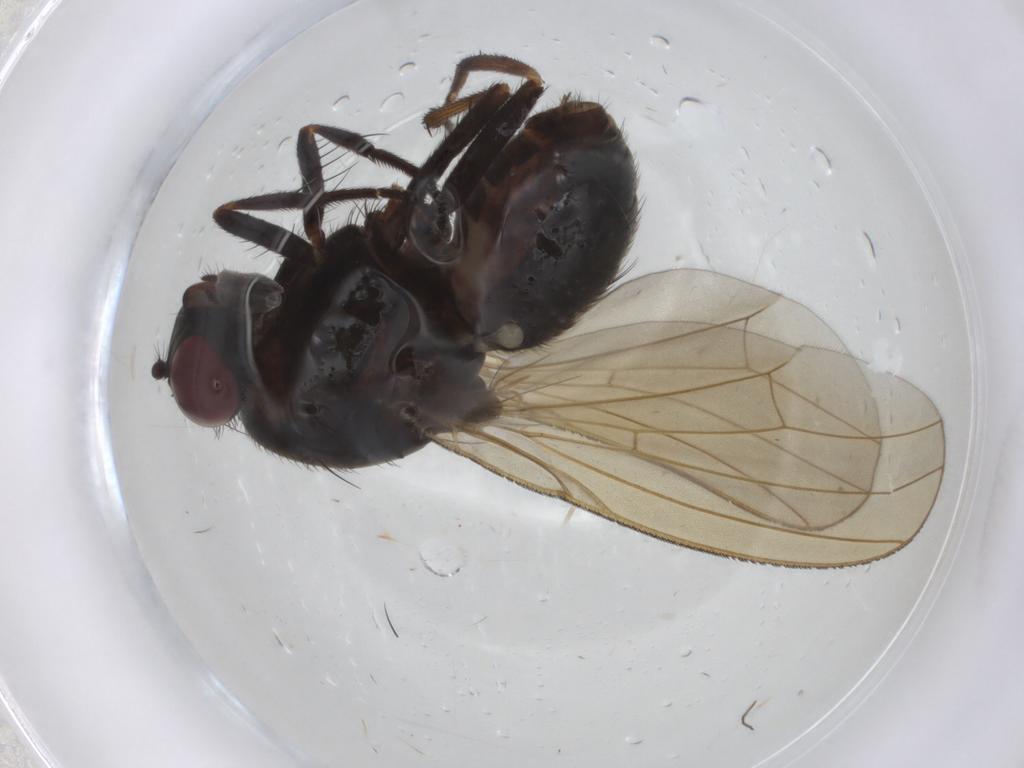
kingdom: Animalia
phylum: Arthropoda
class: Insecta
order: Diptera
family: Chironomidae
